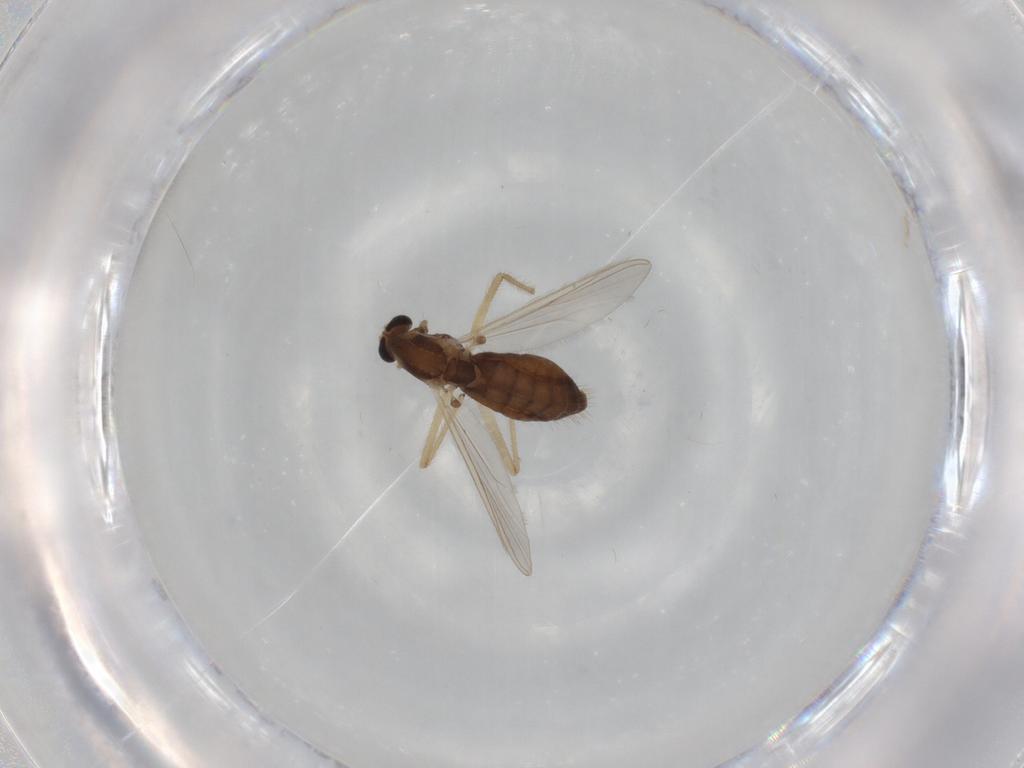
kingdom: Animalia
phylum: Arthropoda
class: Insecta
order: Diptera
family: Chironomidae
